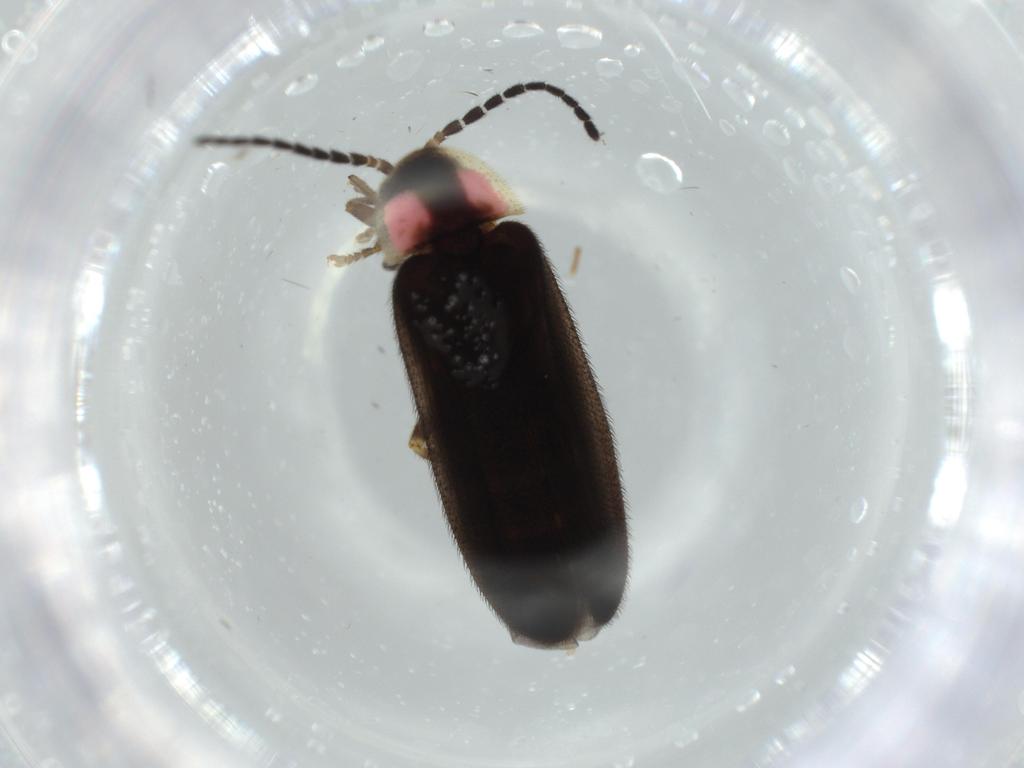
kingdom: Animalia
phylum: Arthropoda
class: Insecta
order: Coleoptera
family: Lampyridae
